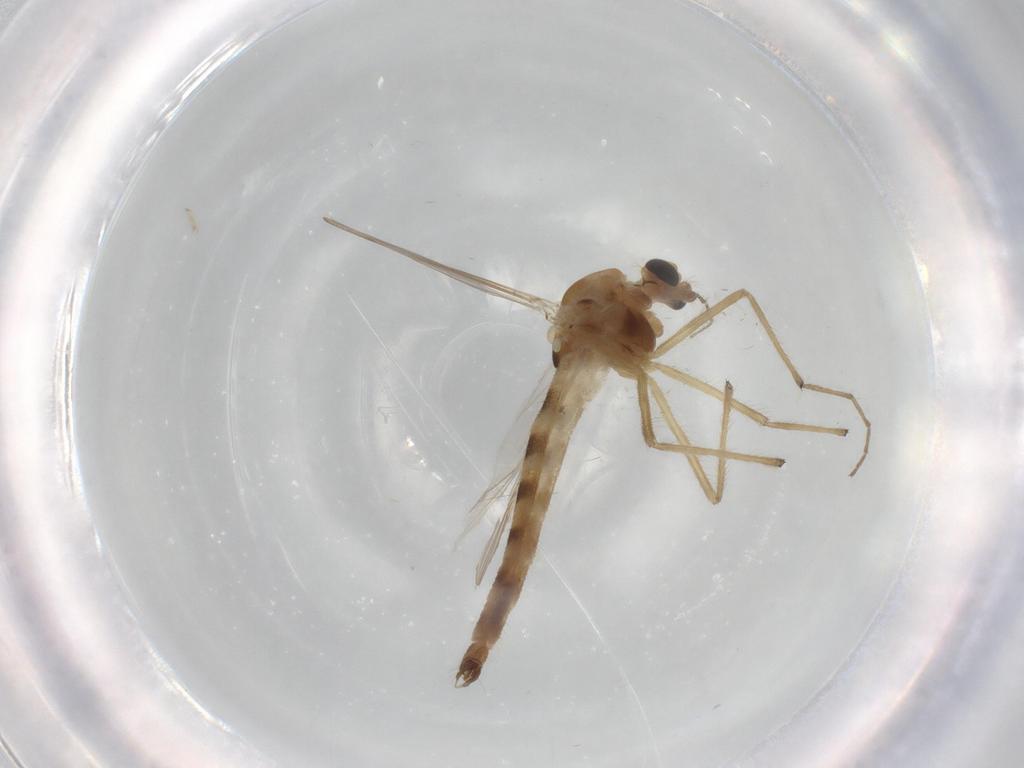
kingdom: Animalia
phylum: Arthropoda
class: Insecta
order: Diptera
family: Chironomidae
